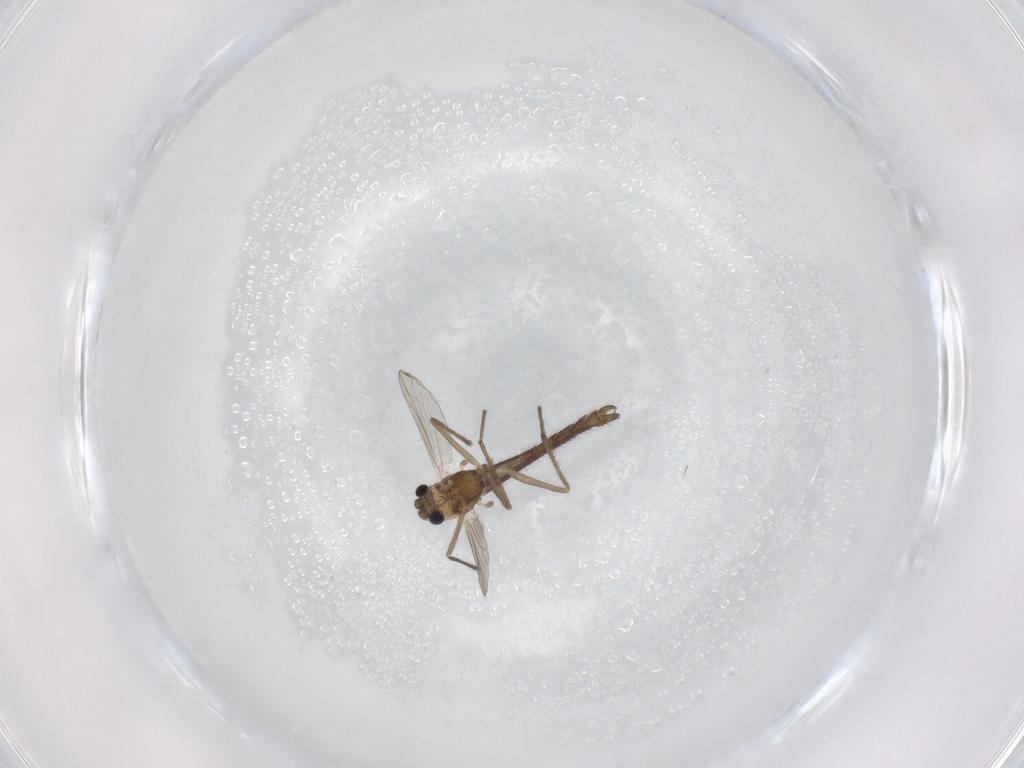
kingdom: Animalia
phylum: Arthropoda
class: Insecta
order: Diptera
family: Chironomidae
